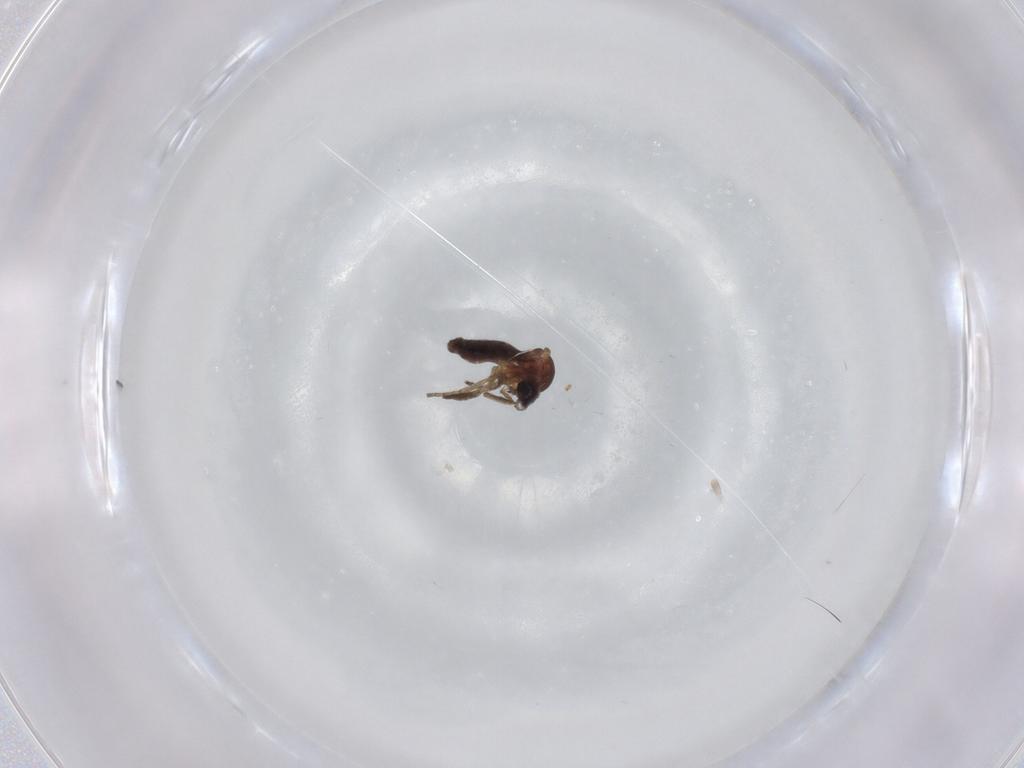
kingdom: Animalia
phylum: Arthropoda
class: Insecta
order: Diptera
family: Ceratopogonidae
